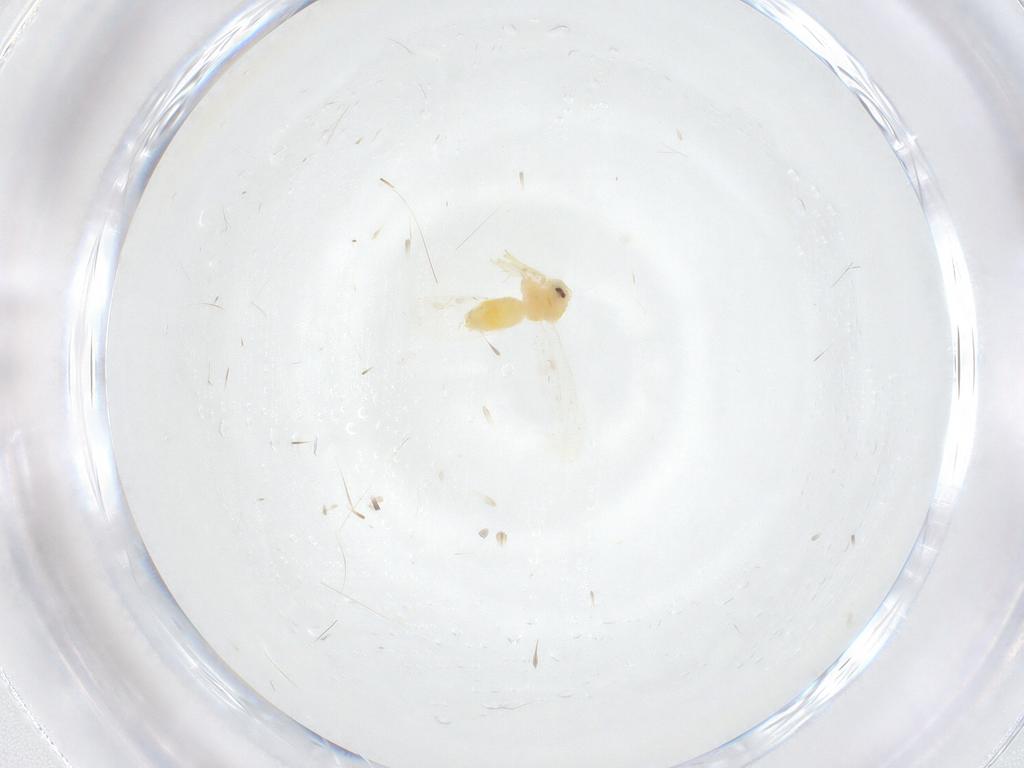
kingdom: Animalia
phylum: Arthropoda
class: Insecta
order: Hemiptera
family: Aleyrodidae
